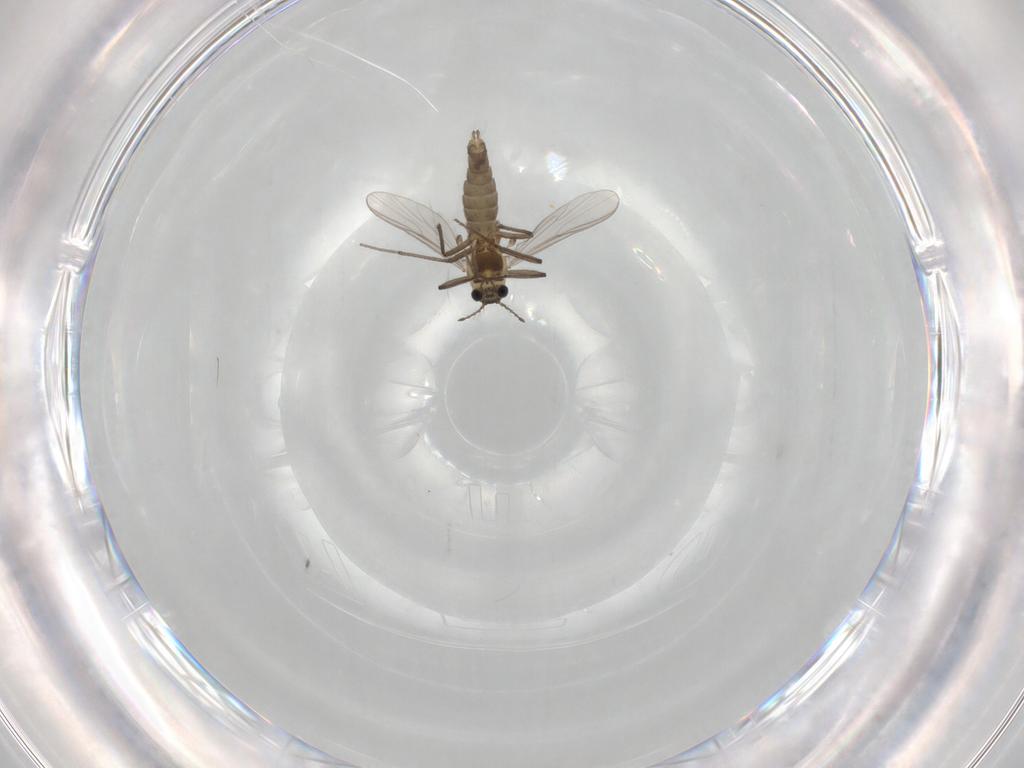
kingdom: Animalia
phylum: Arthropoda
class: Insecta
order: Diptera
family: Chironomidae
